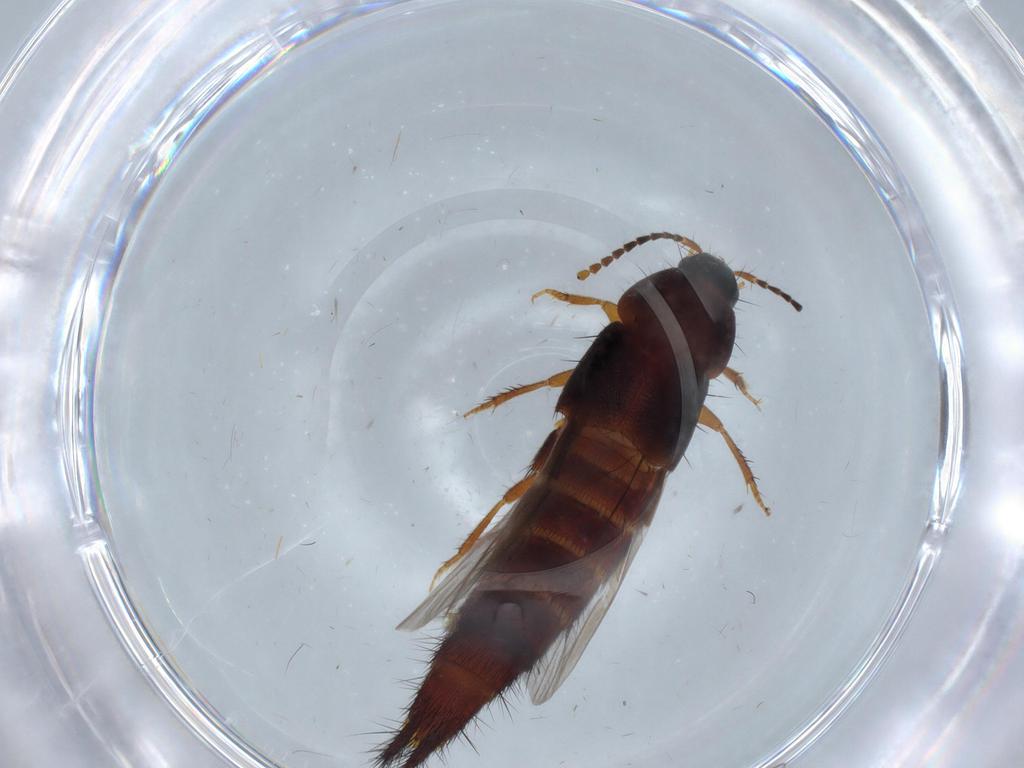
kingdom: Animalia
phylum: Arthropoda
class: Insecta
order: Coleoptera
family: Staphylinidae
